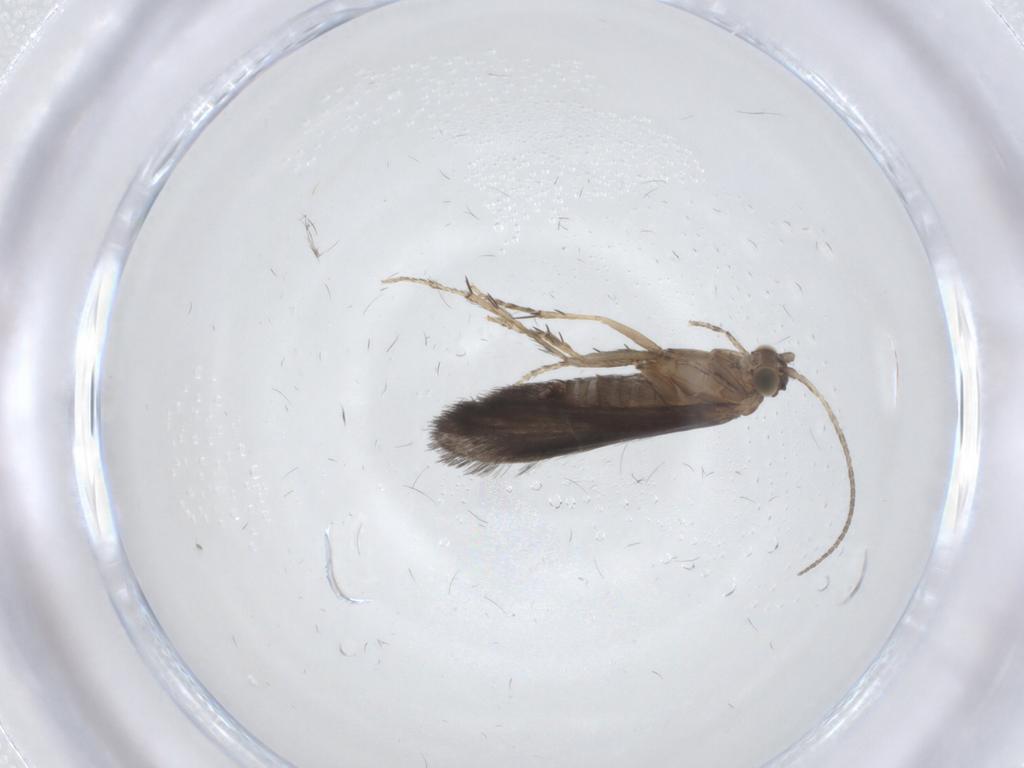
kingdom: Animalia
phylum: Arthropoda
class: Insecta
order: Trichoptera
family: Glossosomatidae
